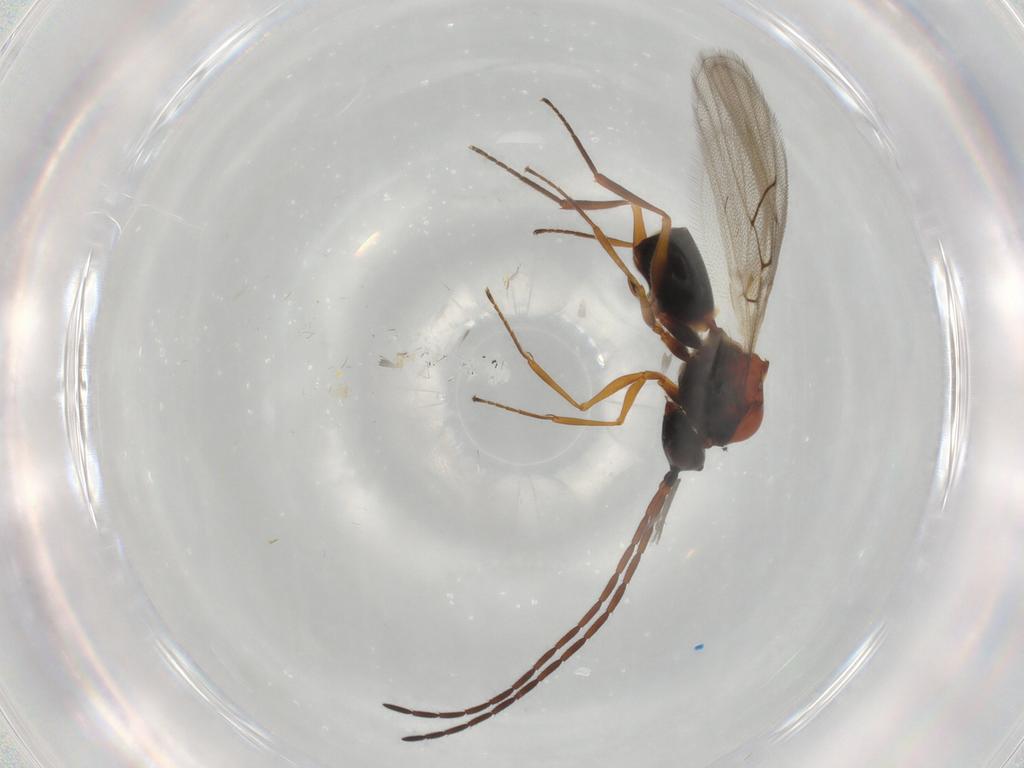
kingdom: Animalia
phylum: Arthropoda
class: Insecta
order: Hymenoptera
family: Figitidae
